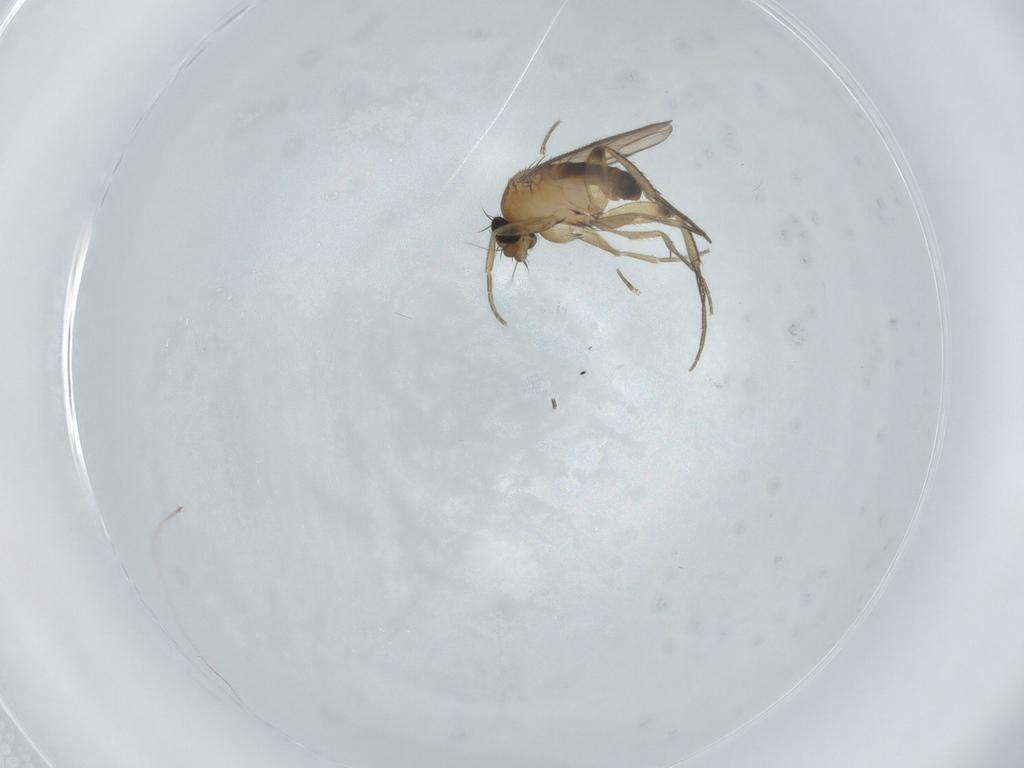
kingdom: Animalia
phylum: Arthropoda
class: Insecta
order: Diptera
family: Phoridae
